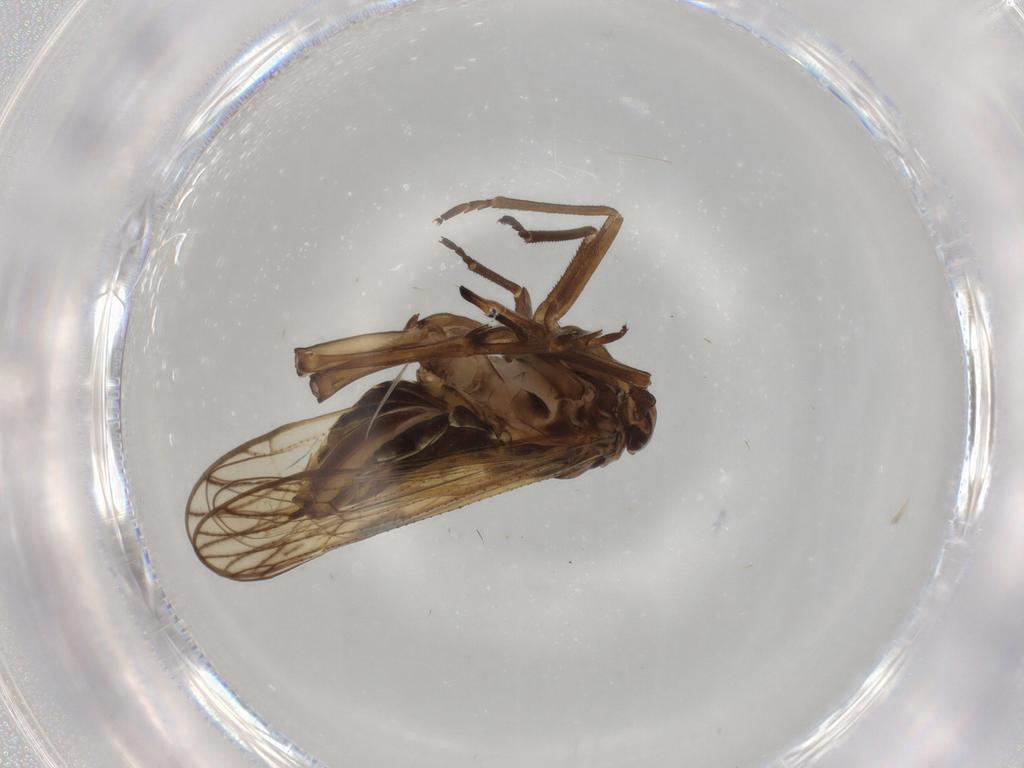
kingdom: Animalia
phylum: Arthropoda
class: Insecta
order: Hemiptera
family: Delphacidae
